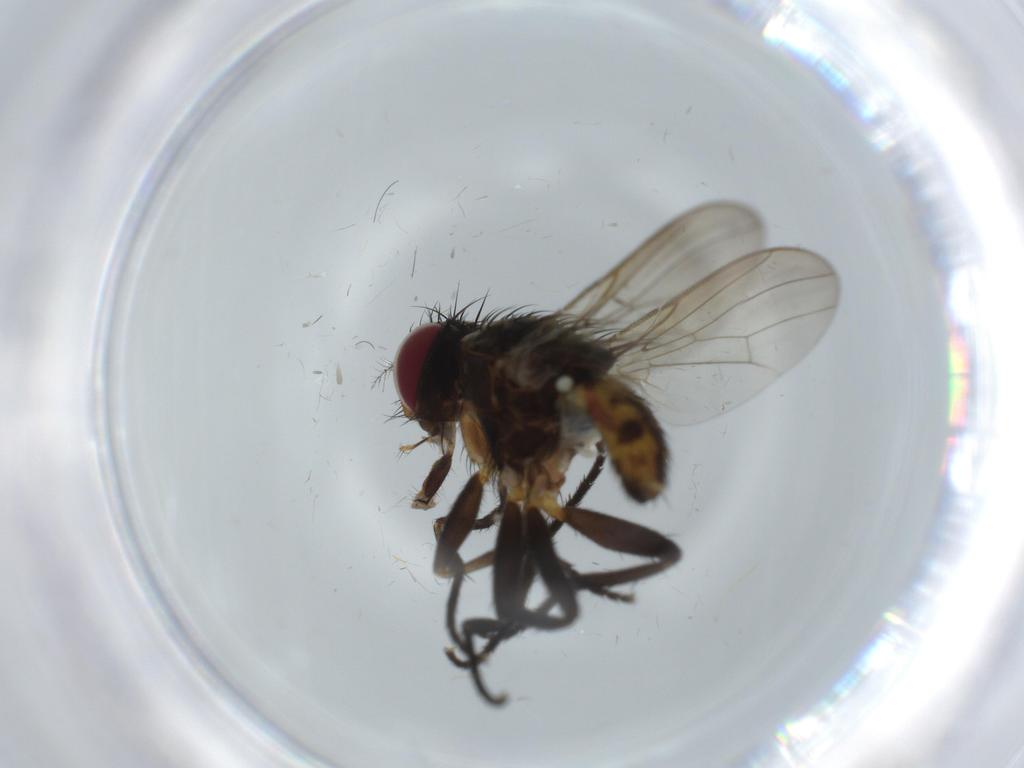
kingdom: Animalia
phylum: Arthropoda
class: Insecta
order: Diptera
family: Anthomyiidae
